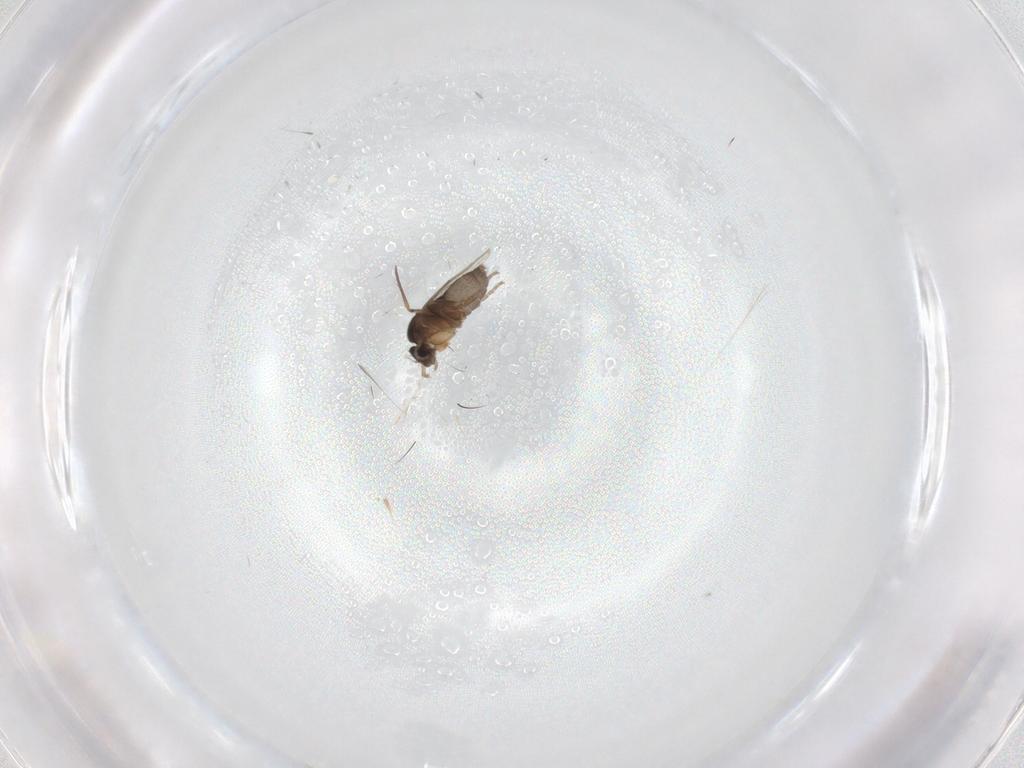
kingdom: Animalia
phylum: Arthropoda
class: Insecta
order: Diptera
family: Phoridae
